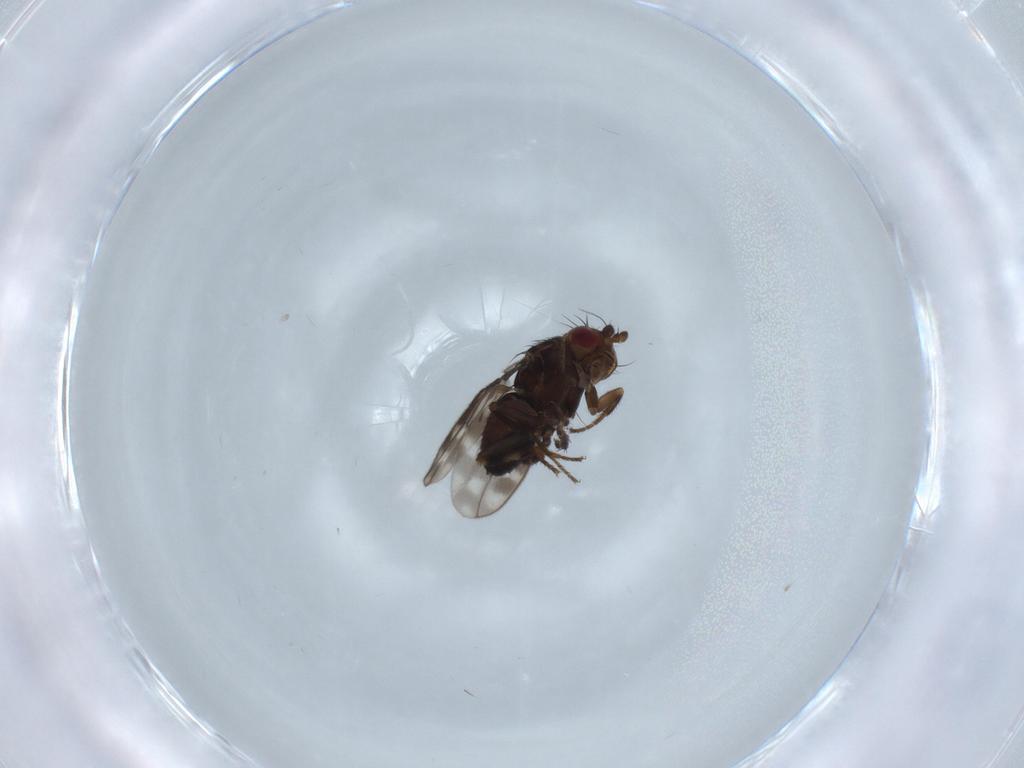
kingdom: Animalia
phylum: Arthropoda
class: Insecta
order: Diptera
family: Sphaeroceridae
